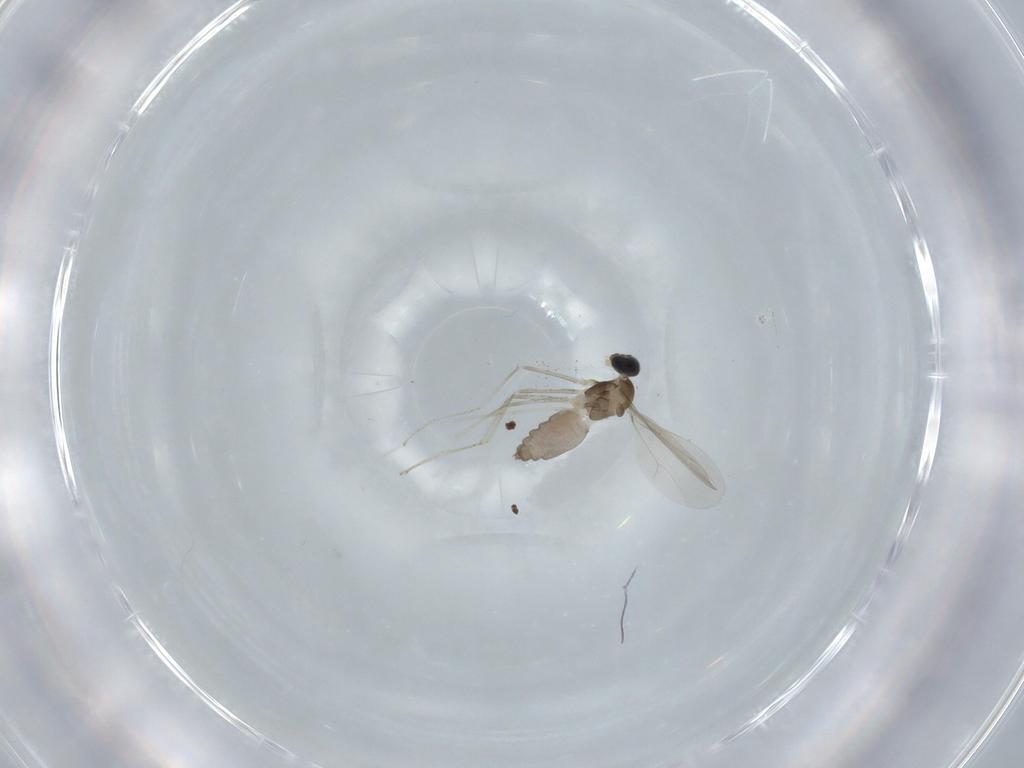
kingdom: Animalia
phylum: Arthropoda
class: Insecta
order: Diptera
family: Cecidomyiidae
